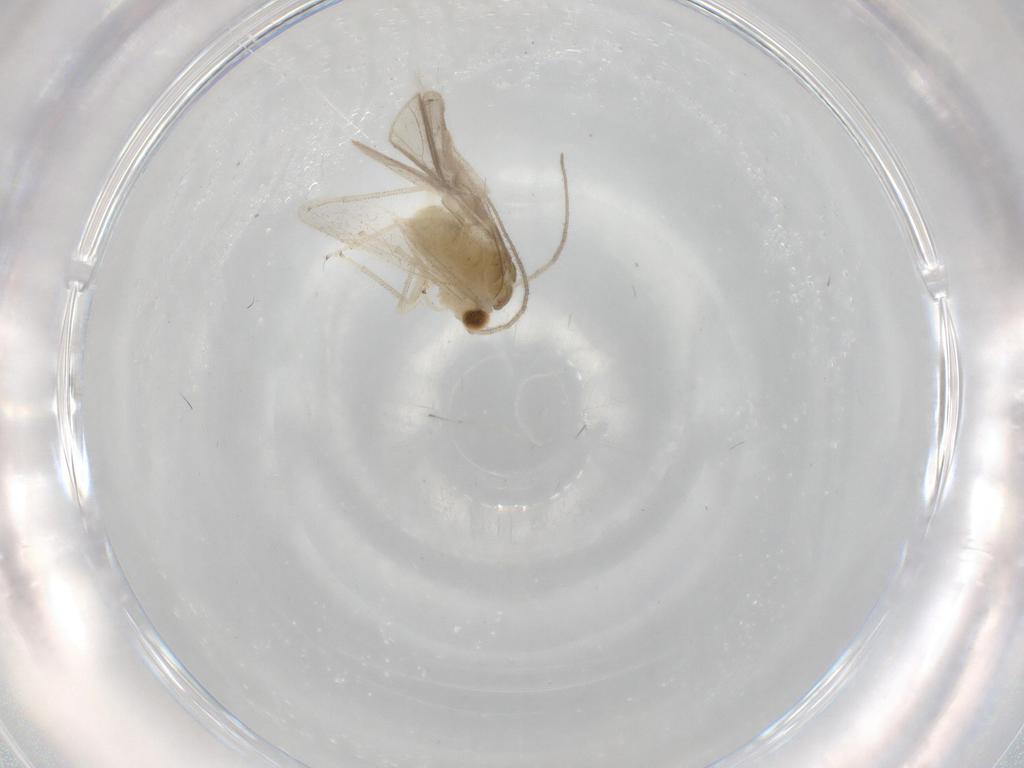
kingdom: Animalia
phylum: Arthropoda
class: Insecta
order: Psocodea
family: Caeciliusidae
